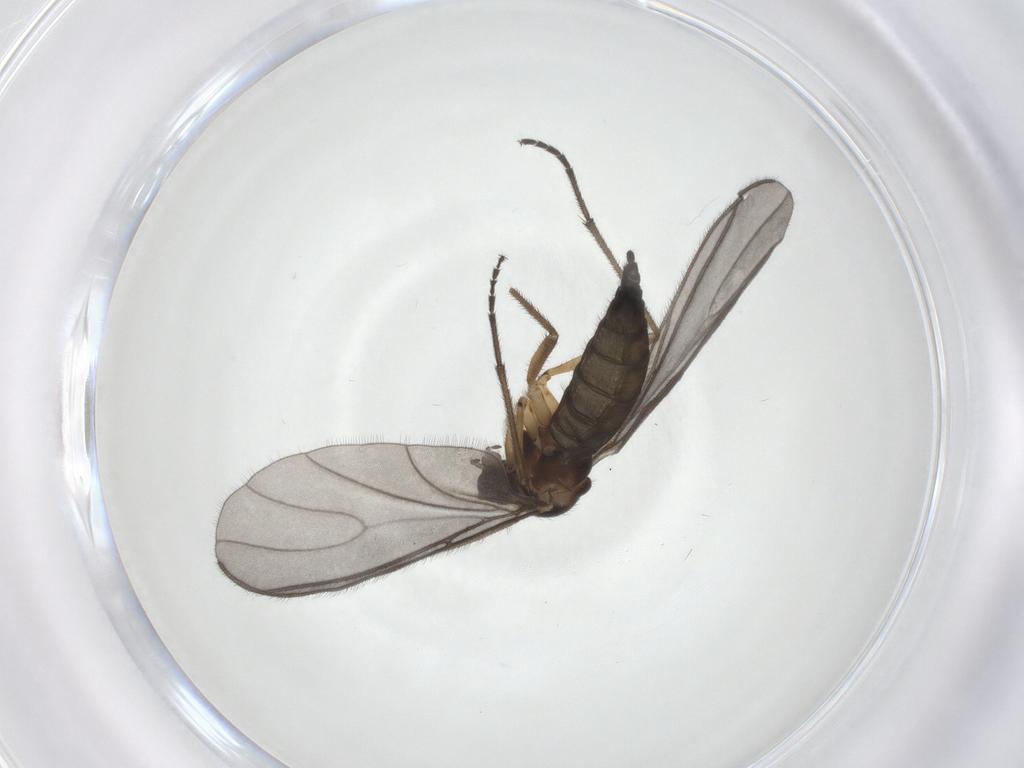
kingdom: Animalia
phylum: Arthropoda
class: Insecta
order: Diptera
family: Sciaridae
